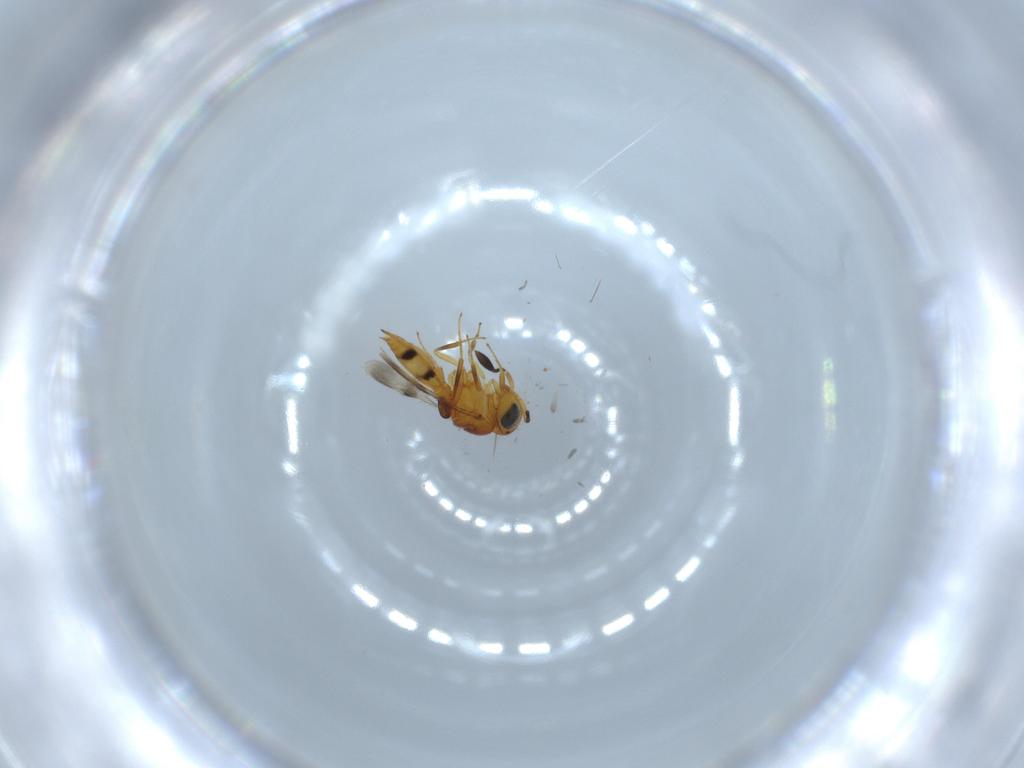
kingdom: Animalia
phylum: Arthropoda
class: Insecta
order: Hymenoptera
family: Scelionidae
